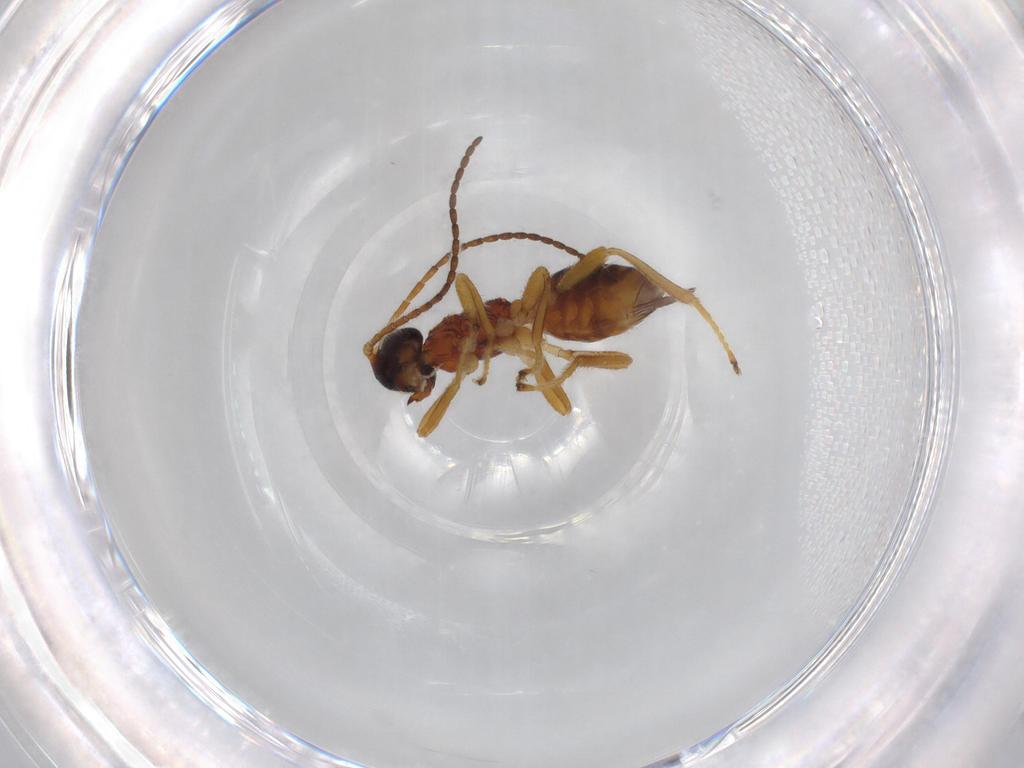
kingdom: Animalia
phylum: Arthropoda
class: Insecta
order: Hymenoptera
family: Braconidae
